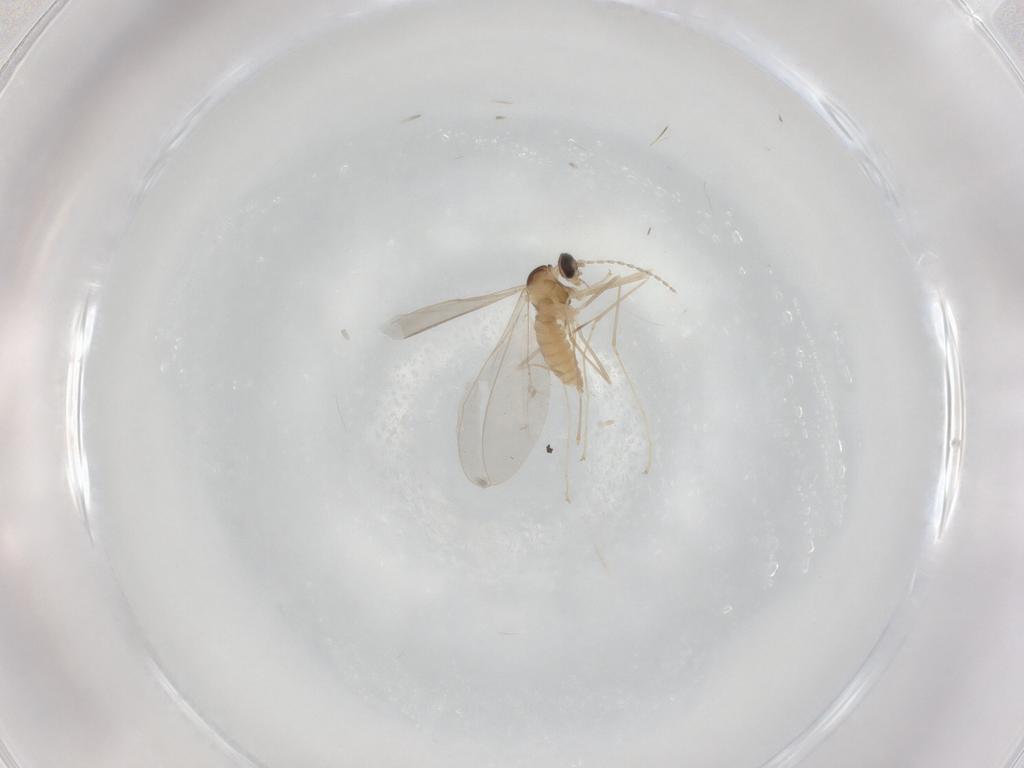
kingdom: Animalia
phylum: Arthropoda
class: Insecta
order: Diptera
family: Cecidomyiidae
